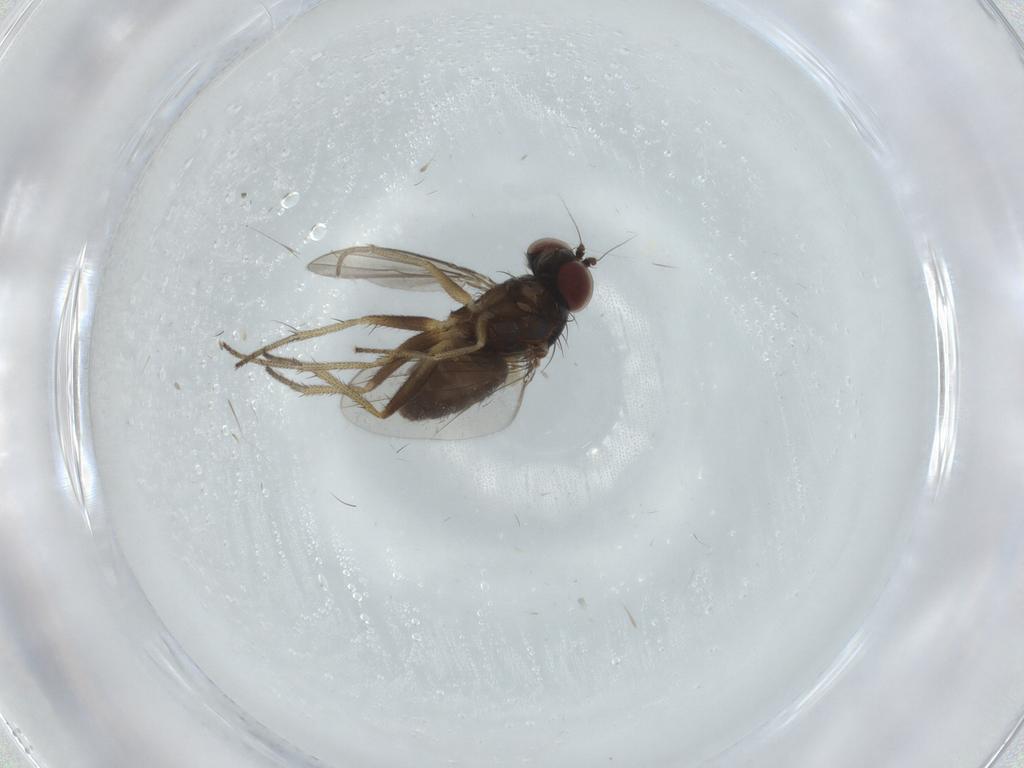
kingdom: Animalia
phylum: Arthropoda
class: Insecta
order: Diptera
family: Dolichopodidae
